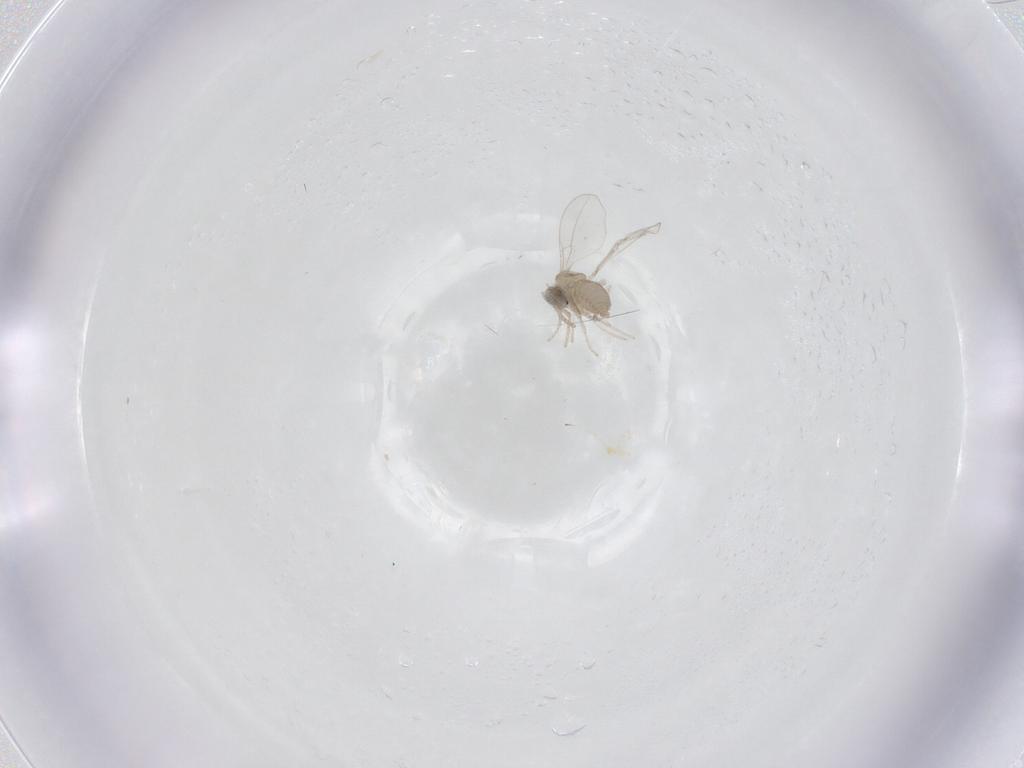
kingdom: Animalia
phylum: Arthropoda
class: Insecta
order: Diptera
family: Cecidomyiidae
